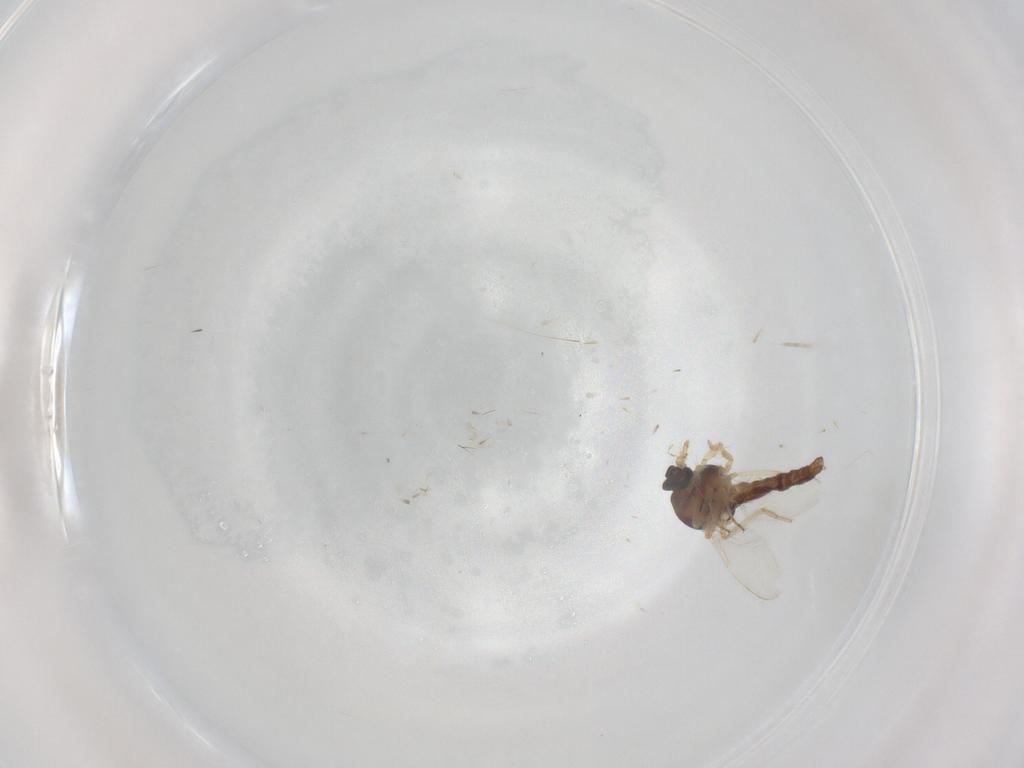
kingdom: Animalia
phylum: Arthropoda
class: Insecta
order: Diptera
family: Ceratopogonidae
